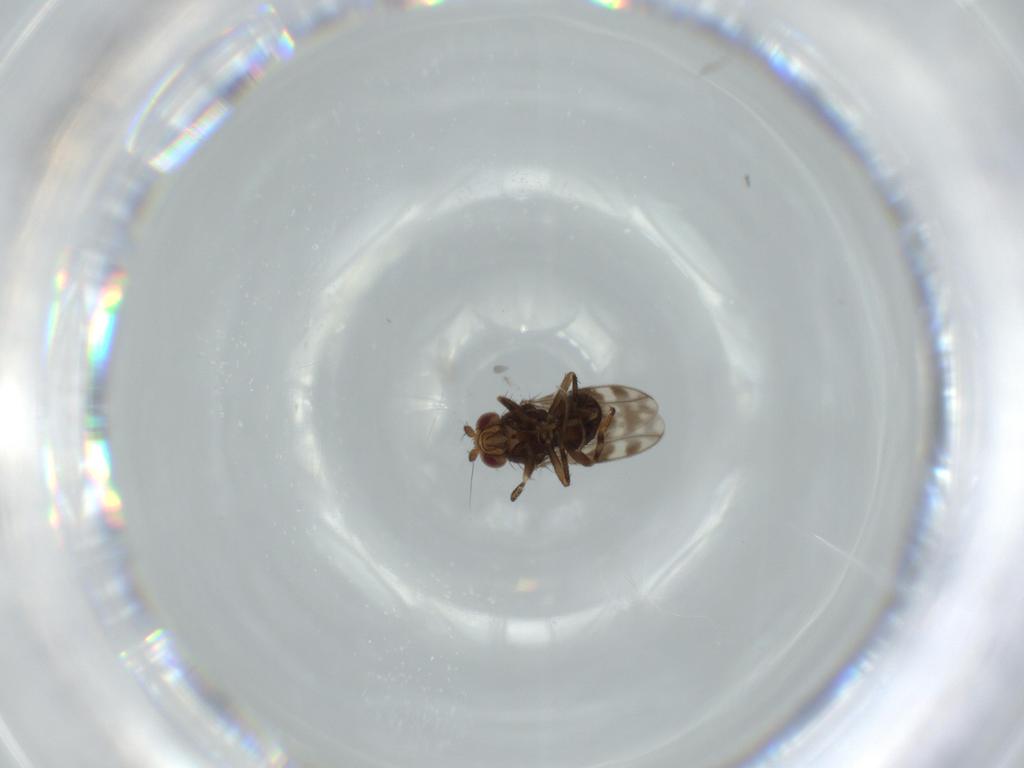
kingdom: Animalia
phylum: Arthropoda
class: Insecta
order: Diptera
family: Sphaeroceridae
